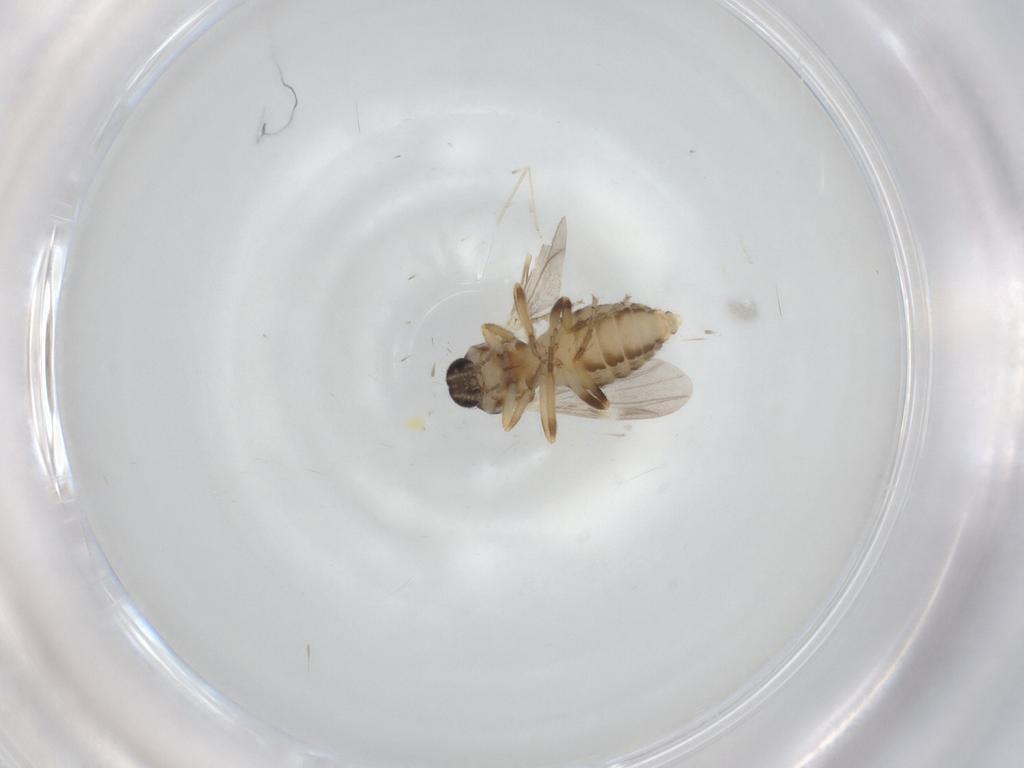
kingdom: Animalia
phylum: Arthropoda
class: Insecta
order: Diptera
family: Ceratopogonidae
